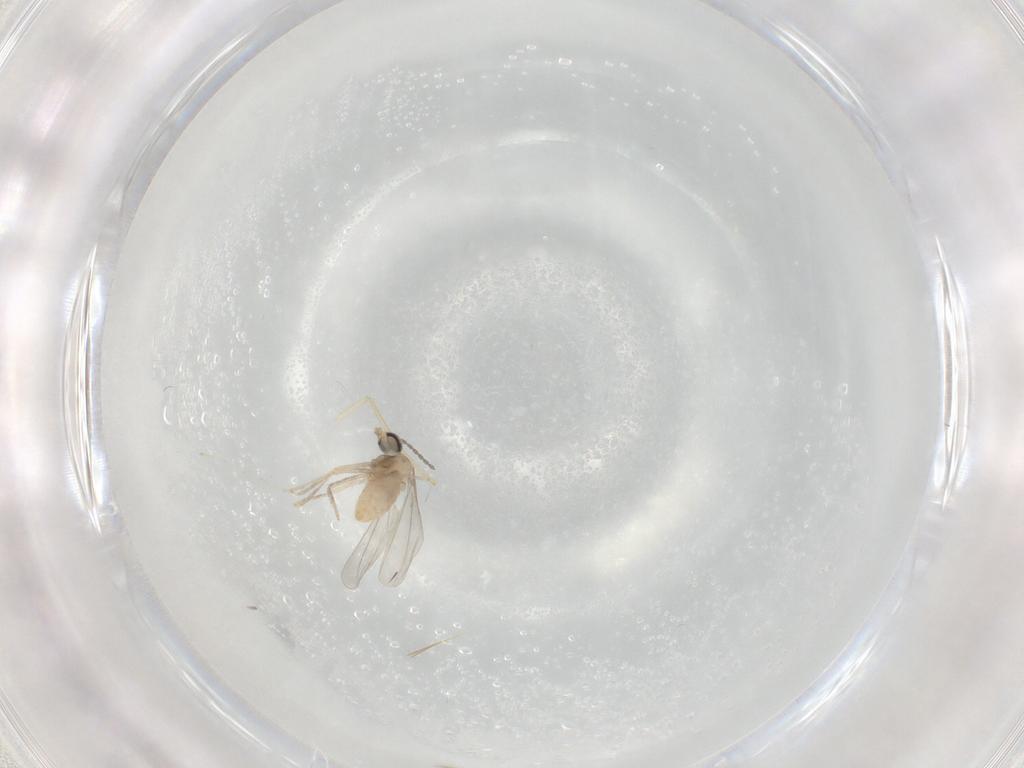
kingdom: Animalia
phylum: Arthropoda
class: Insecta
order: Diptera
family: Psychodidae
